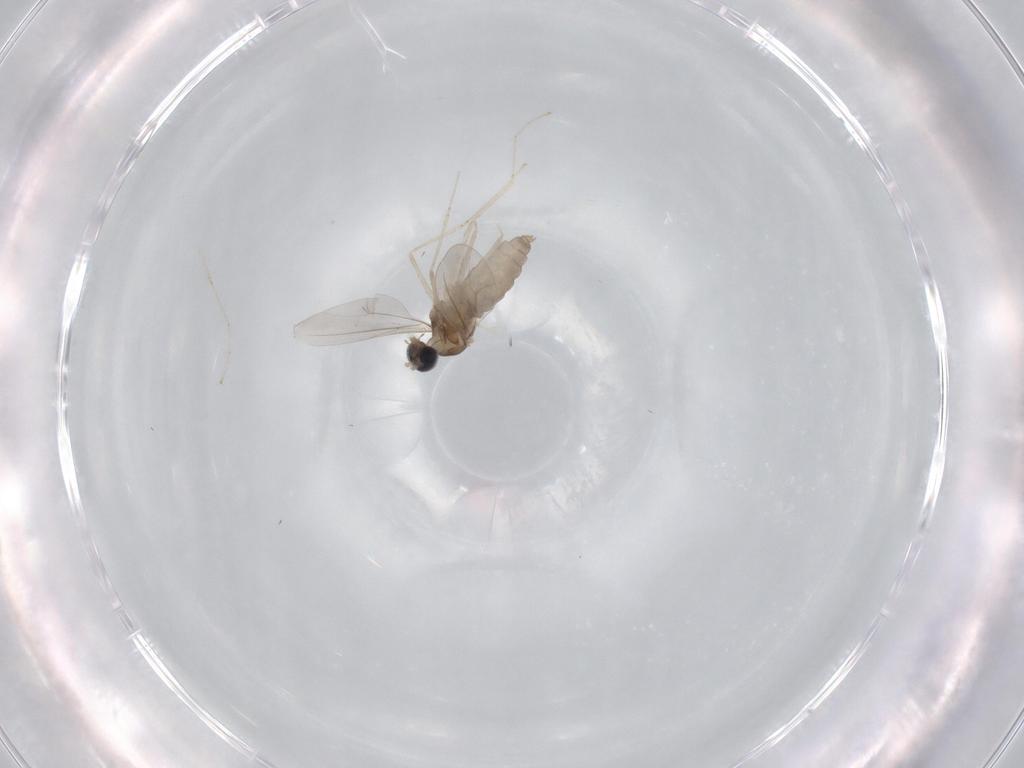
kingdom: Animalia
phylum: Arthropoda
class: Insecta
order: Diptera
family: Cecidomyiidae
